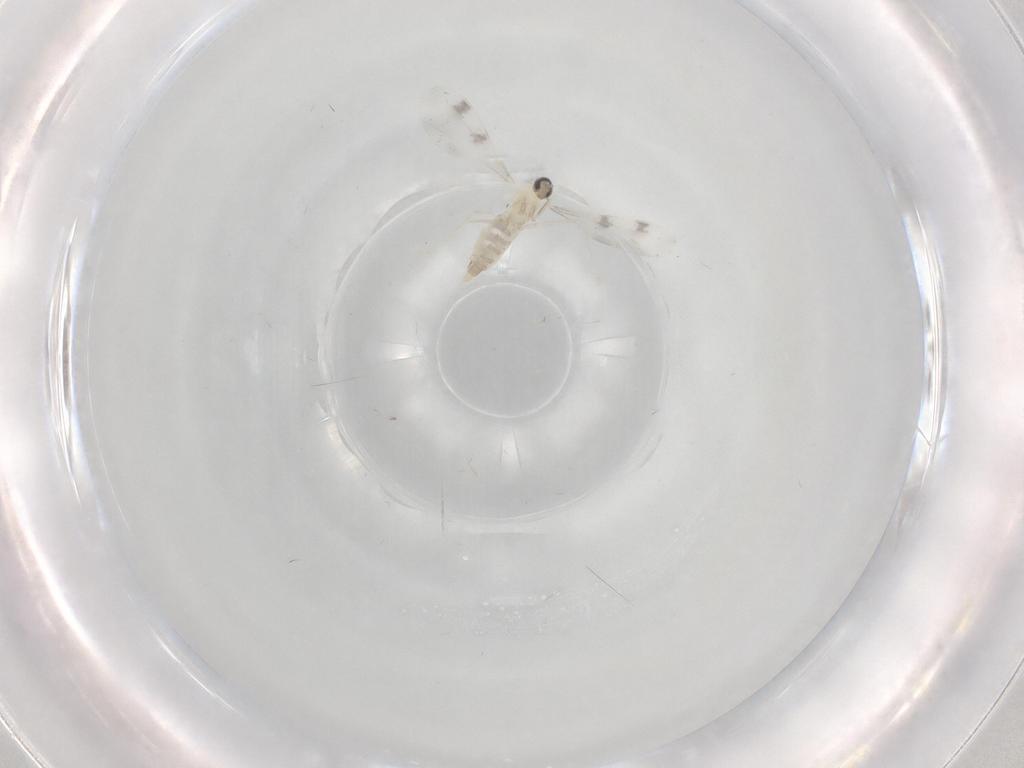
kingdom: Animalia
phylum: Arthropoda
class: Insecta
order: Diptera
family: Cecidomyiidae
